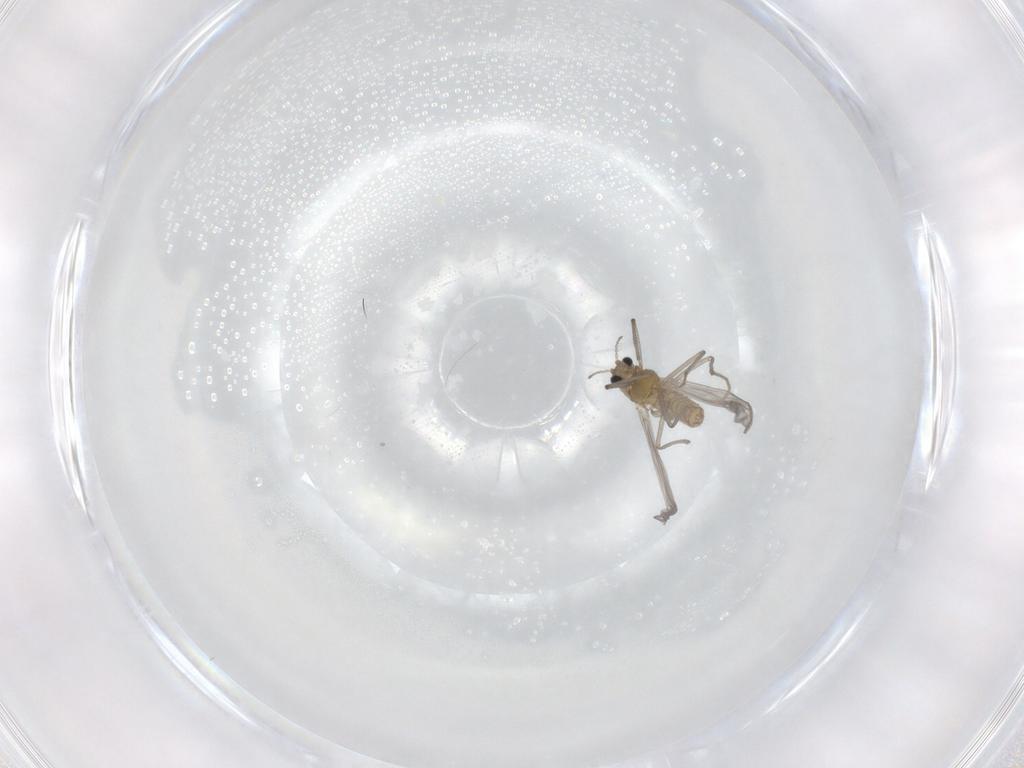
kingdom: Animalia
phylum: Arthropoda
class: Insecta
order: Diptera
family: Chironomidae
